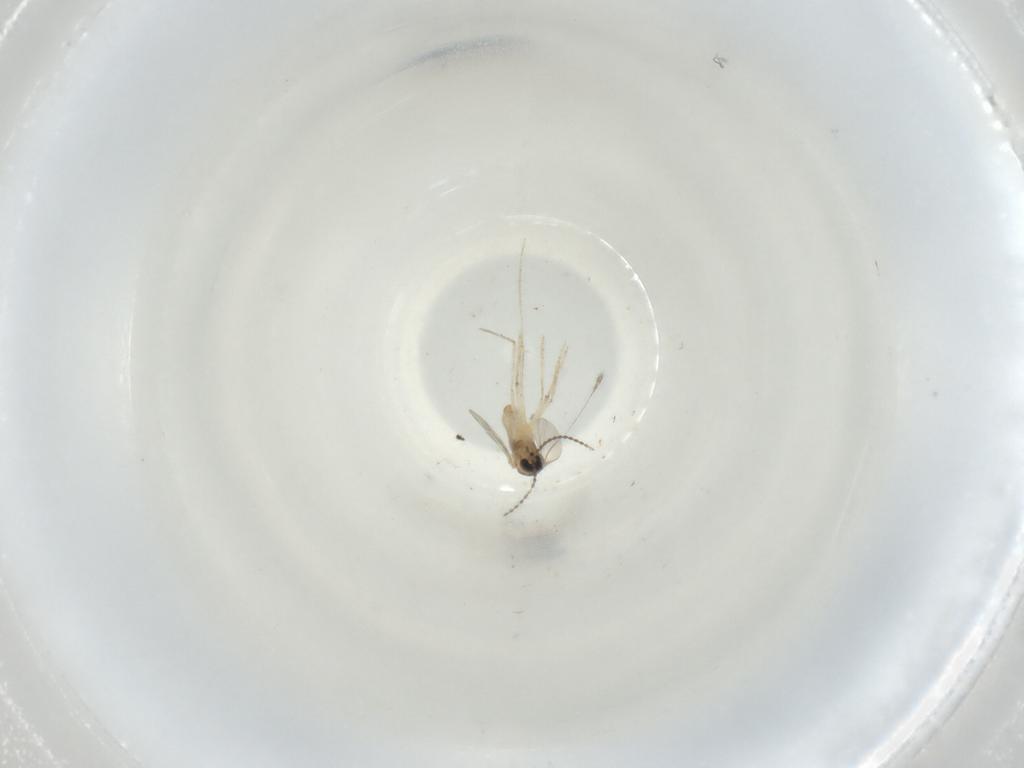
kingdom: Animalia
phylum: Arthropoda
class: Insecta
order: Diptera
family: Cecidomyiidae
